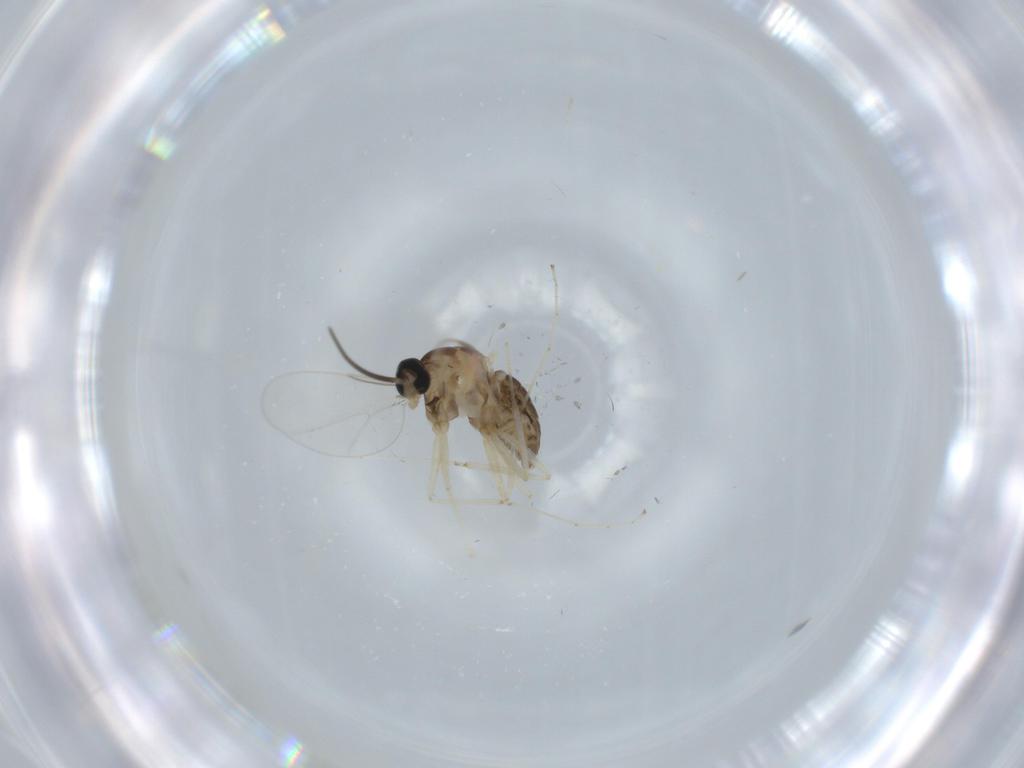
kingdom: Animalia
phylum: Arthropoda
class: Insecta
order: Diptera
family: Cecidomyiidae
